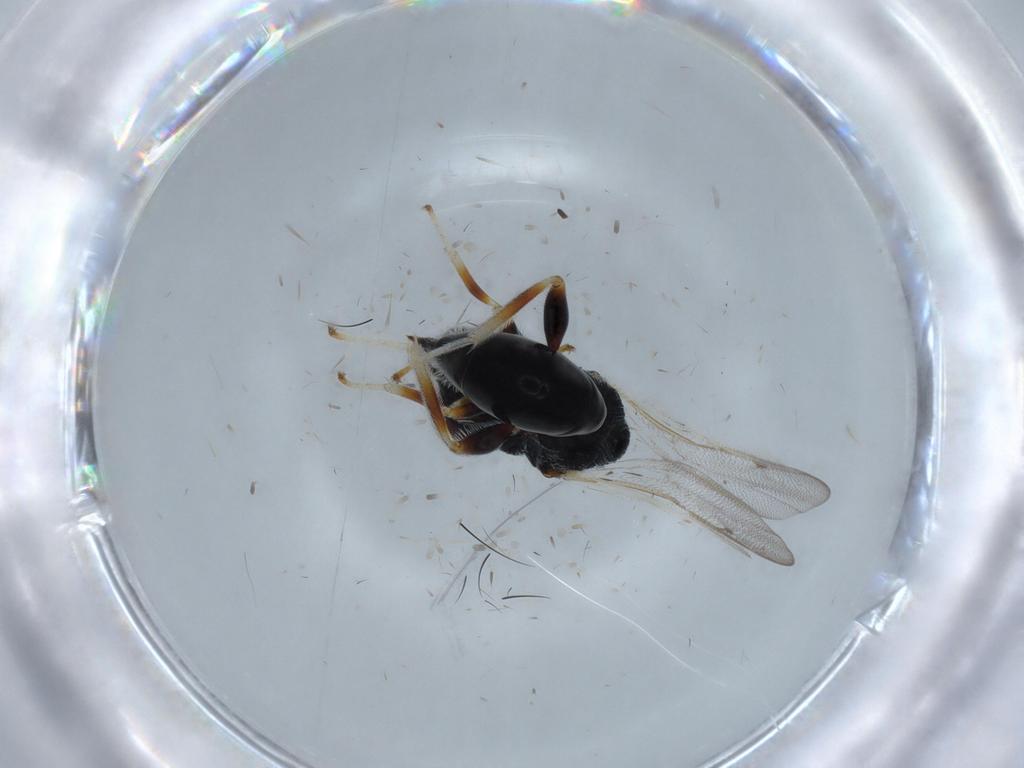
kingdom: Animalia
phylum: Arthropoda
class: Insecta
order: Hymenoptera
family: Eurytomidae
